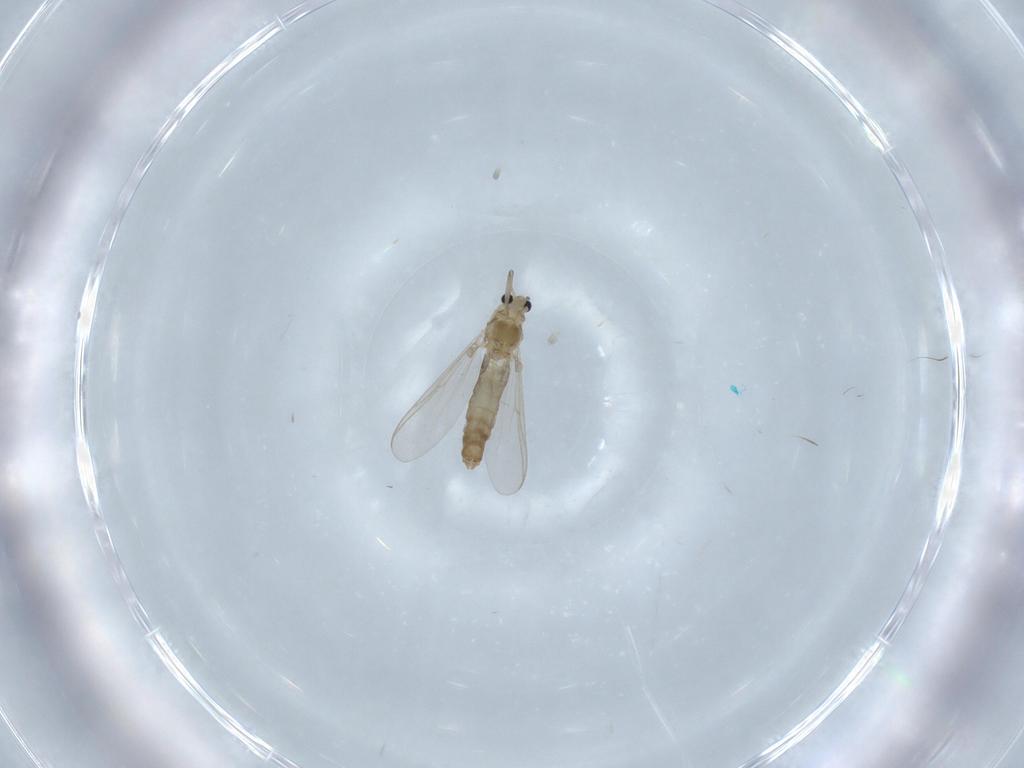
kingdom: Animalia
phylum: Arthropoda
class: Insecta
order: Diptera
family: Chironomidae
